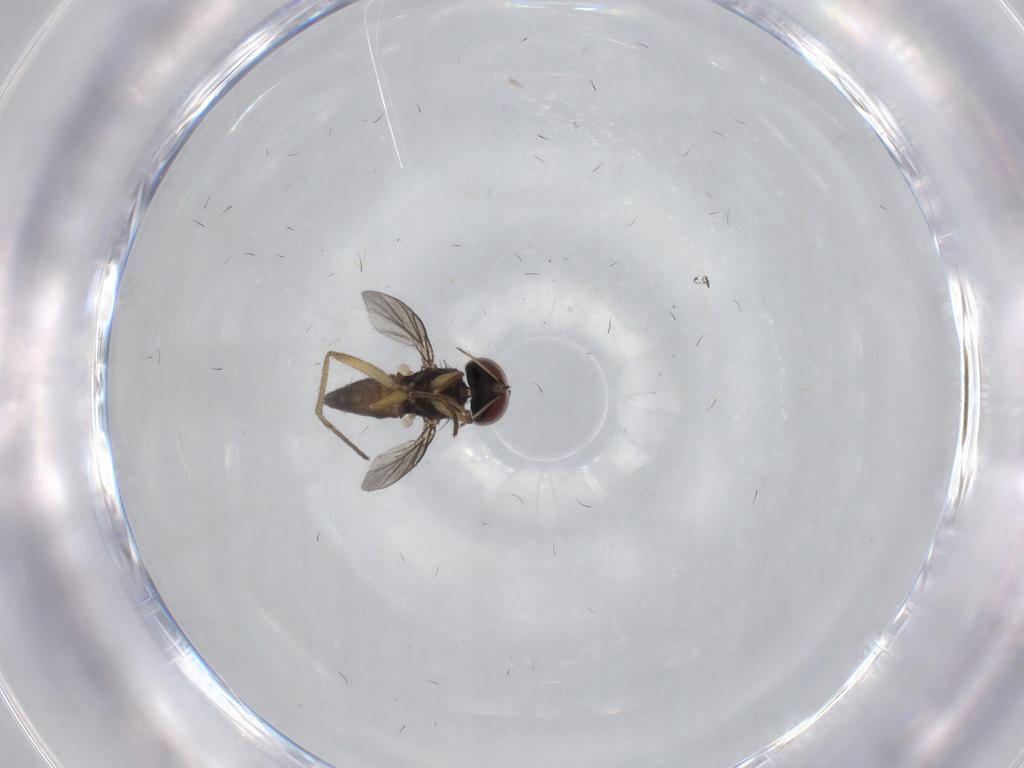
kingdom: Animalia
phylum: Arthropoda
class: Insecta
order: Diptera
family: Dolichopodidae
